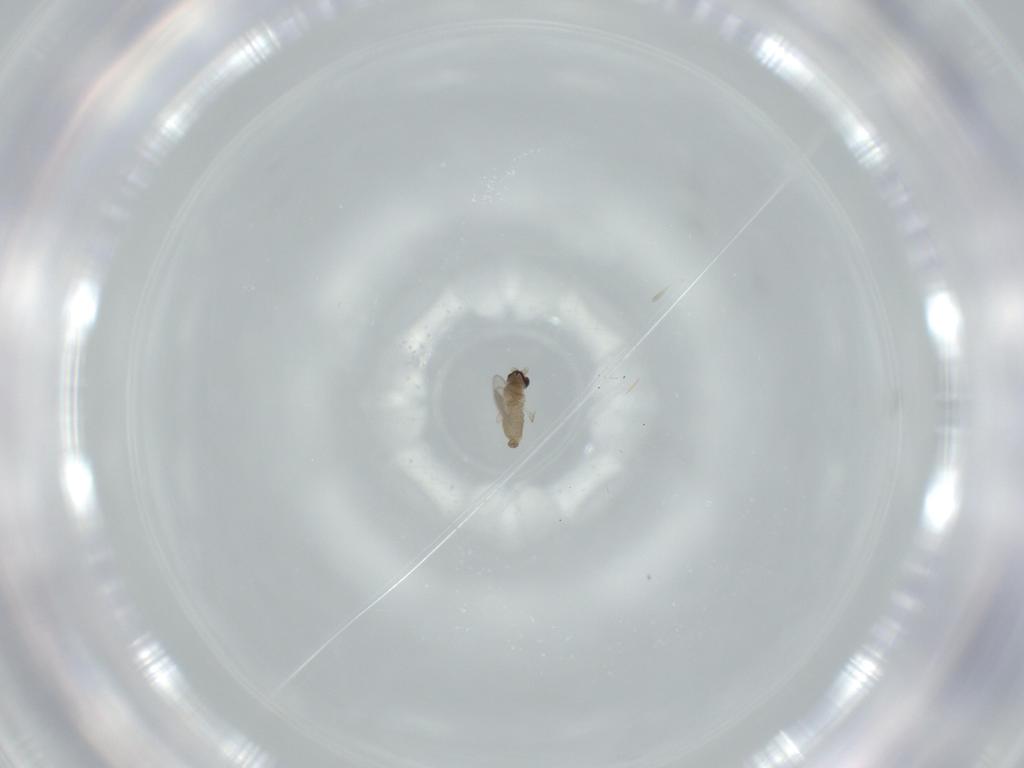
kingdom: Animalia
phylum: Arthropoda
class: Insecta
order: Diptera
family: Cecidomyiidae
